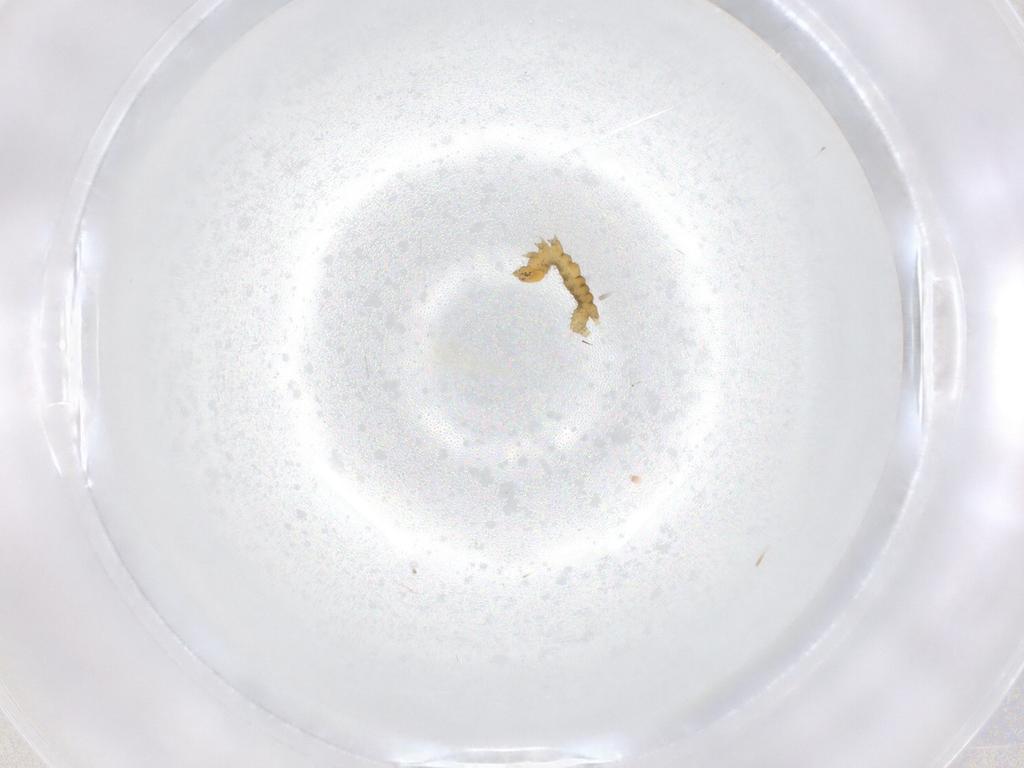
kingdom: Animalia
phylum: Arthropoda
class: Insecta
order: Lepidoptera
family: Geometridae
